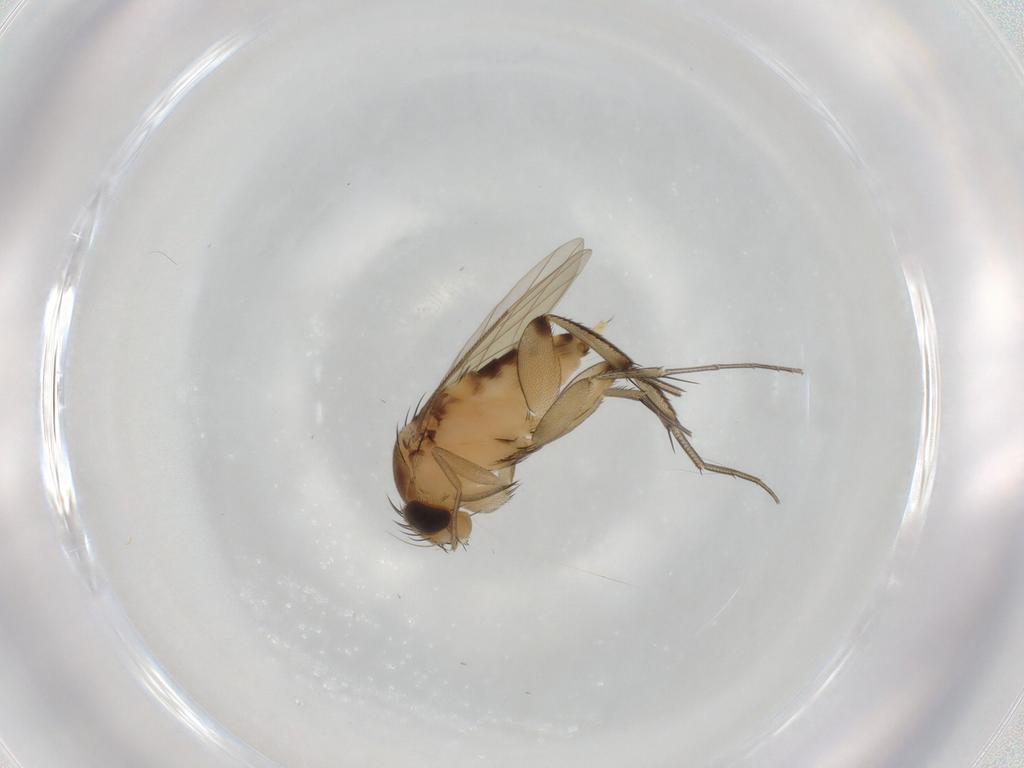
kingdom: Animalia
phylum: Arthropoda
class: Insecta
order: Diptera
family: Phoridae
